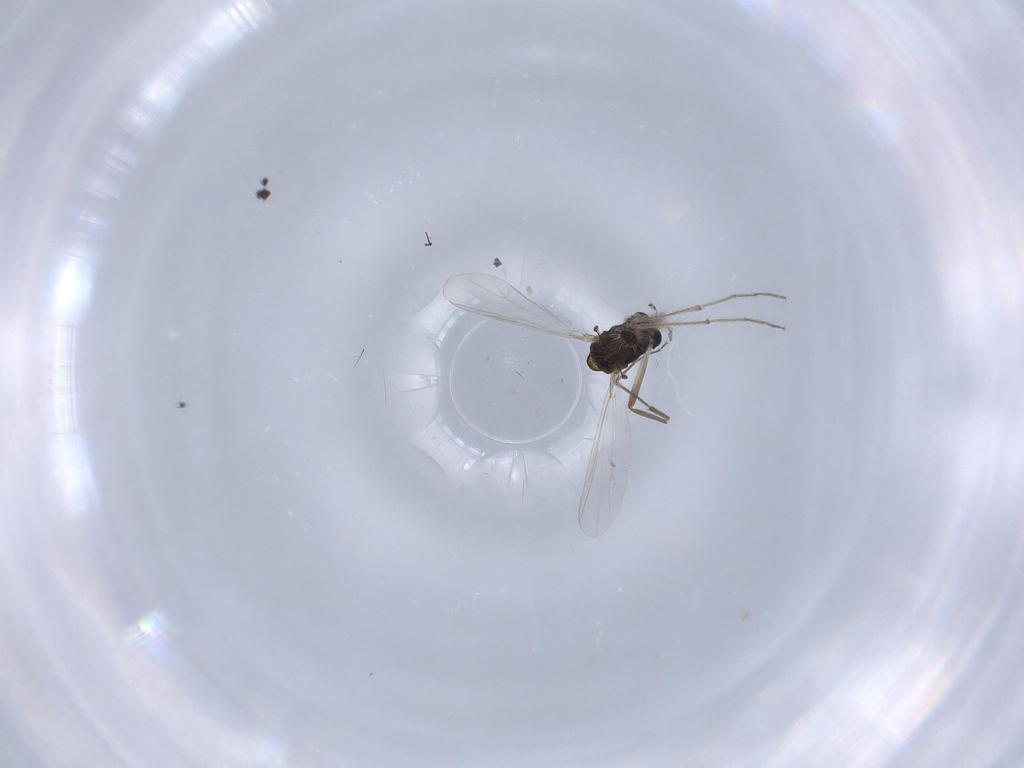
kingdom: Animalia
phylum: Arthropoda
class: Insecta
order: Diptera
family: Chironomidae
